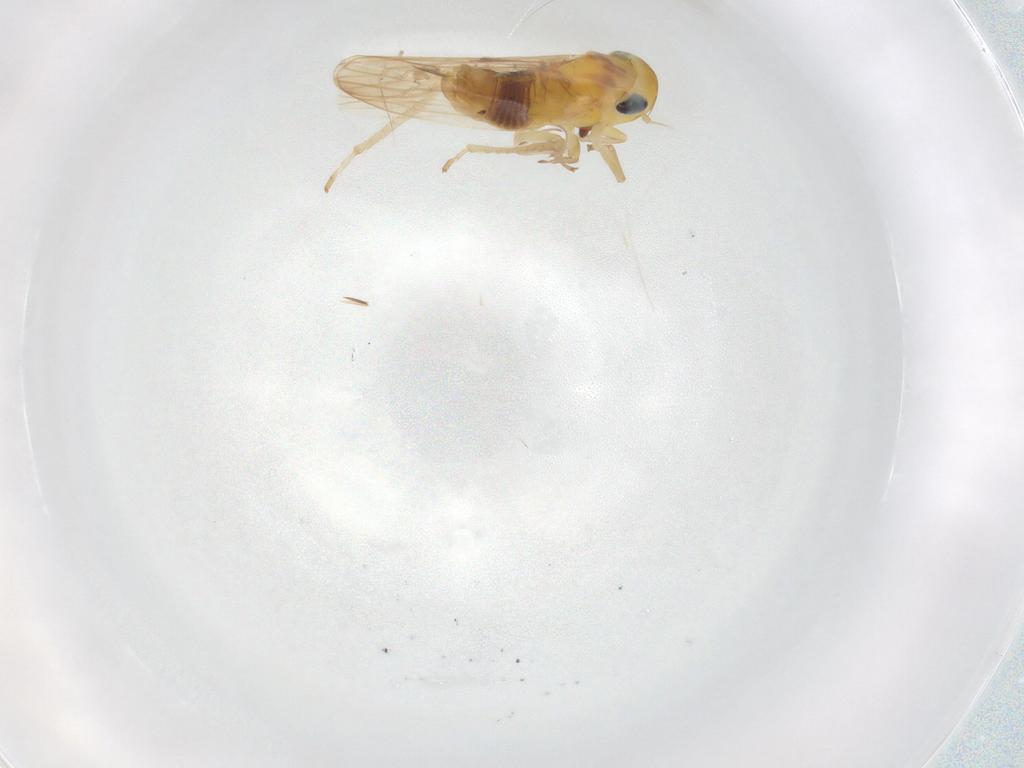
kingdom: Animalia
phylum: Arthropoda
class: Insecta
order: Hemiptera
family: Cicadellidae
